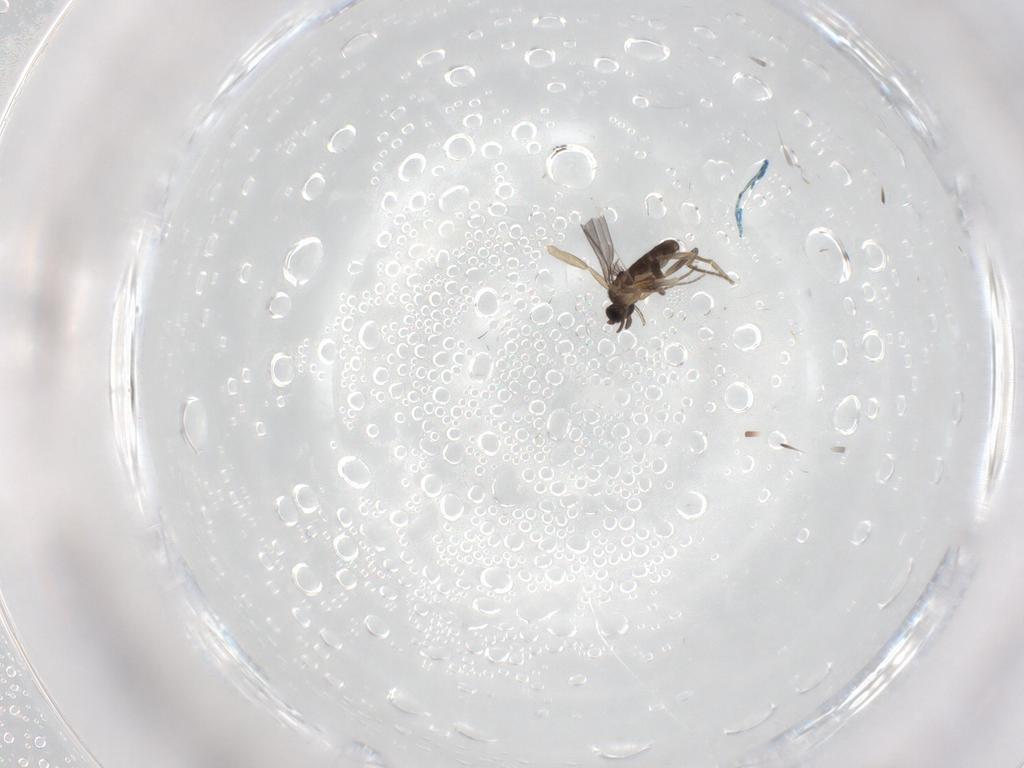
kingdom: Animalia
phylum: Arthropoda
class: Insecta
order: Diptera
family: Phoridae
